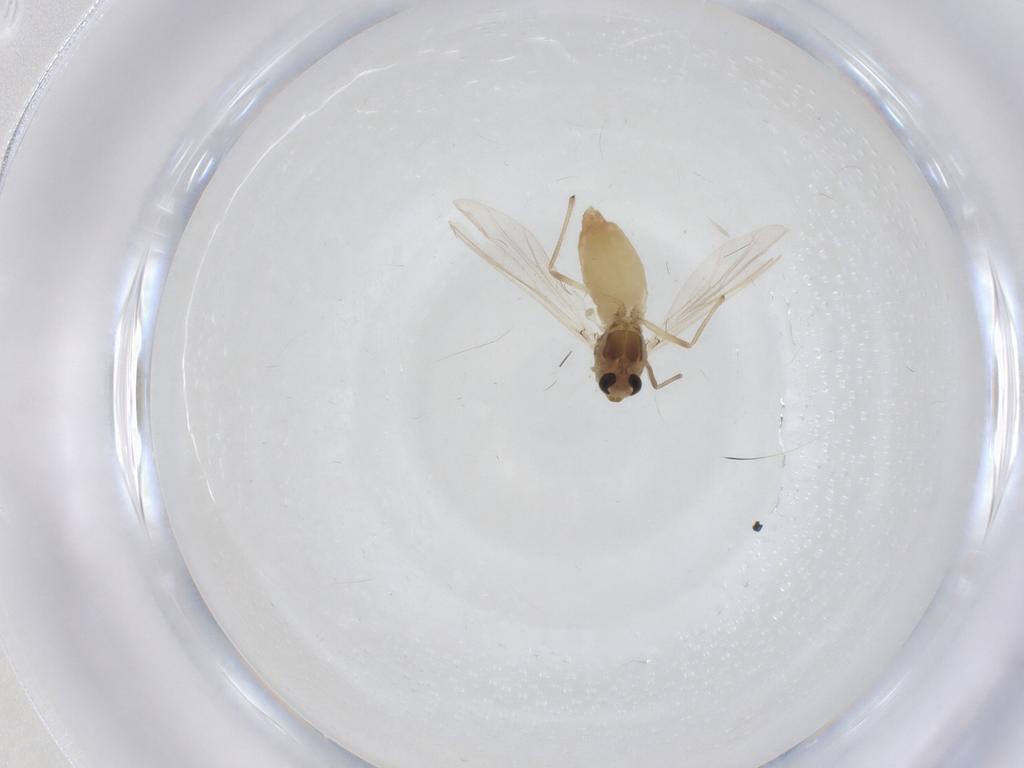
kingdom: Animalia
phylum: Arthropoda
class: Insecta
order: Diptera
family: Chironomidae
